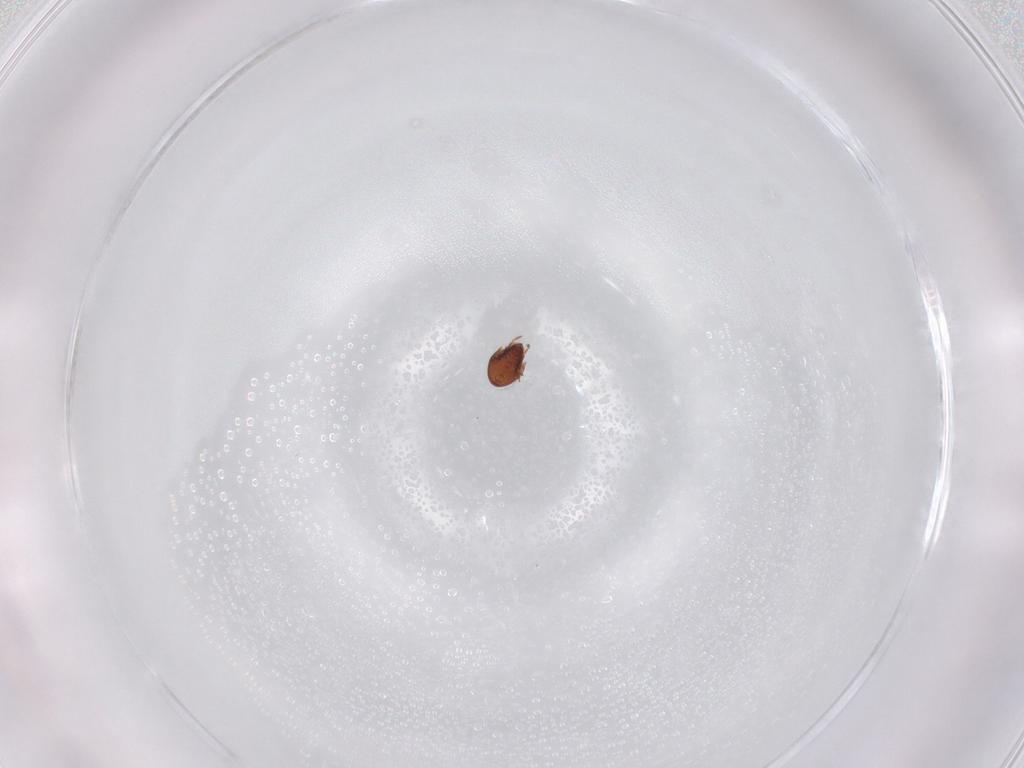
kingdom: Animalia
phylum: Arthropoda
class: Arachnida
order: Sarcoptiformes
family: Ceratozetidae
